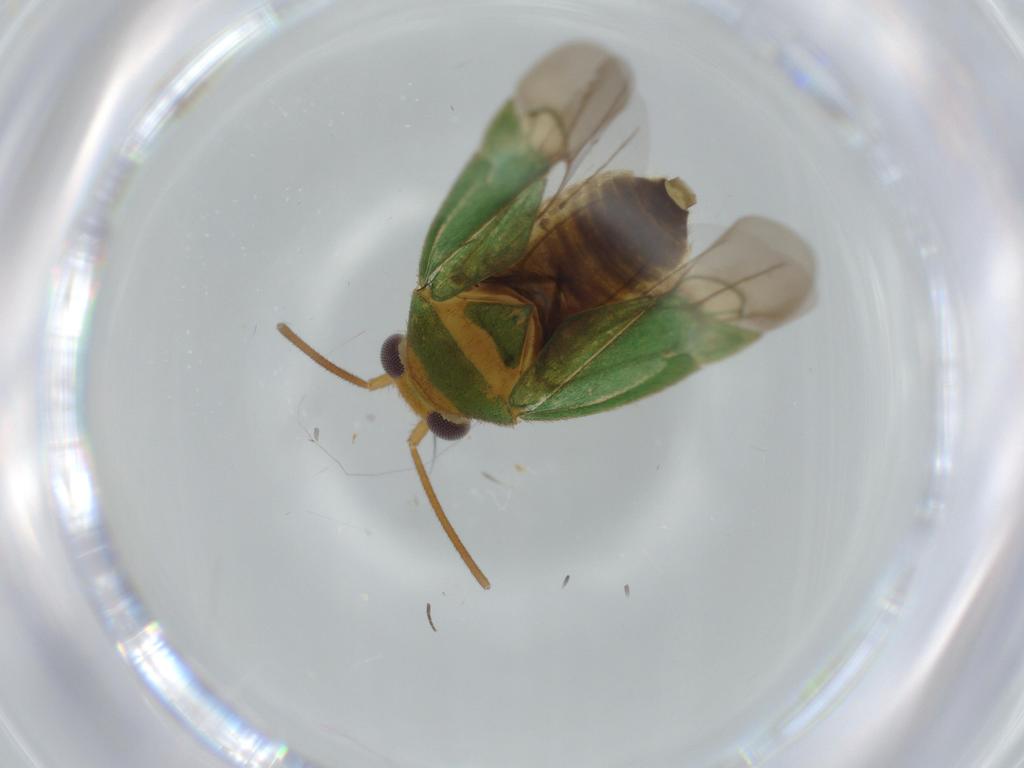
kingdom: Animalia
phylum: Arthropoda
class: Insecta
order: Hemiptera
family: Miridae
